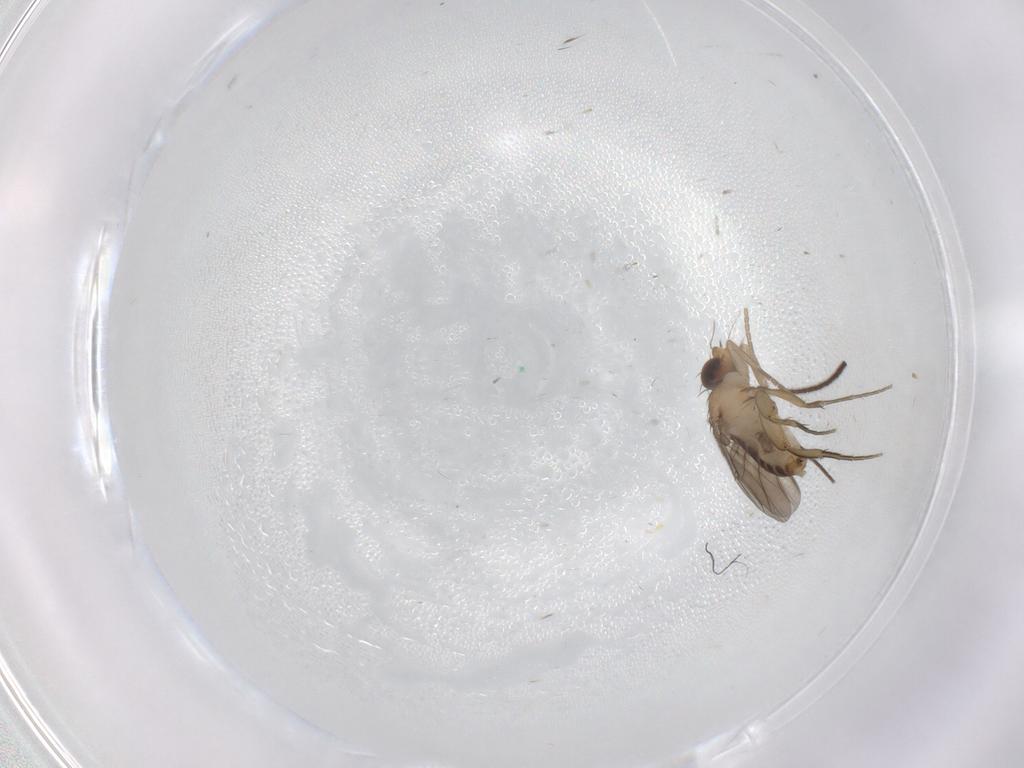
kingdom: Animalia
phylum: Arthropoda
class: Insecta
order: Diptera
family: Phoridae
